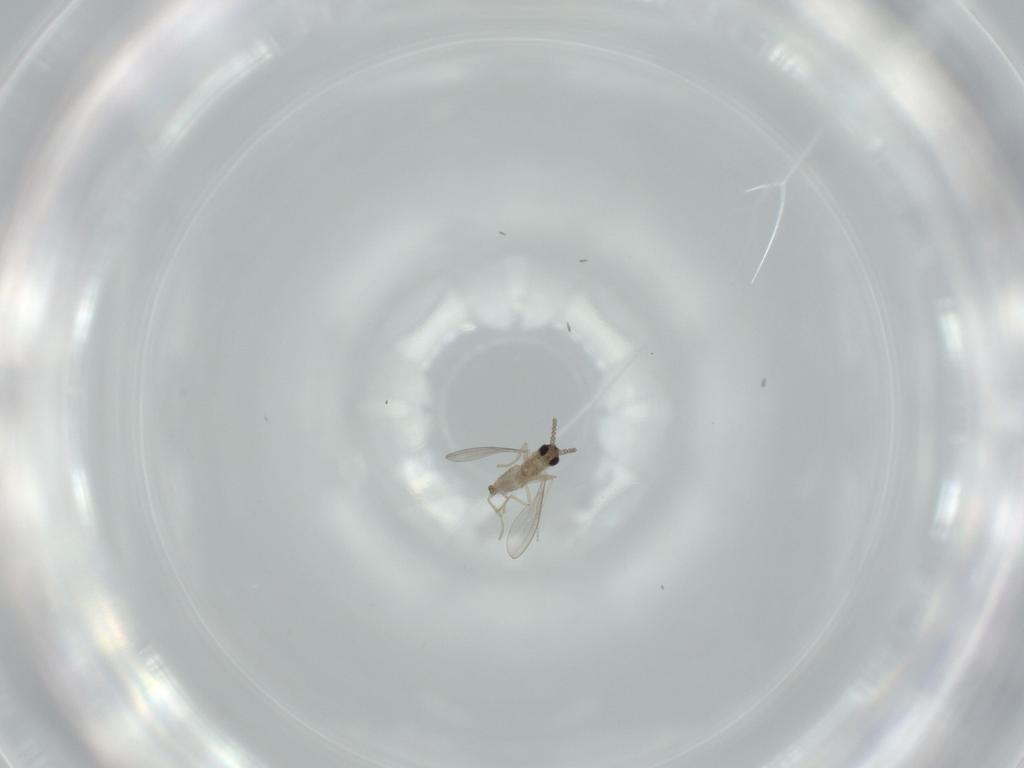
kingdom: Animalia
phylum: Arthropoda
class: Insecta
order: Diptera
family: Cecidomyiidae
